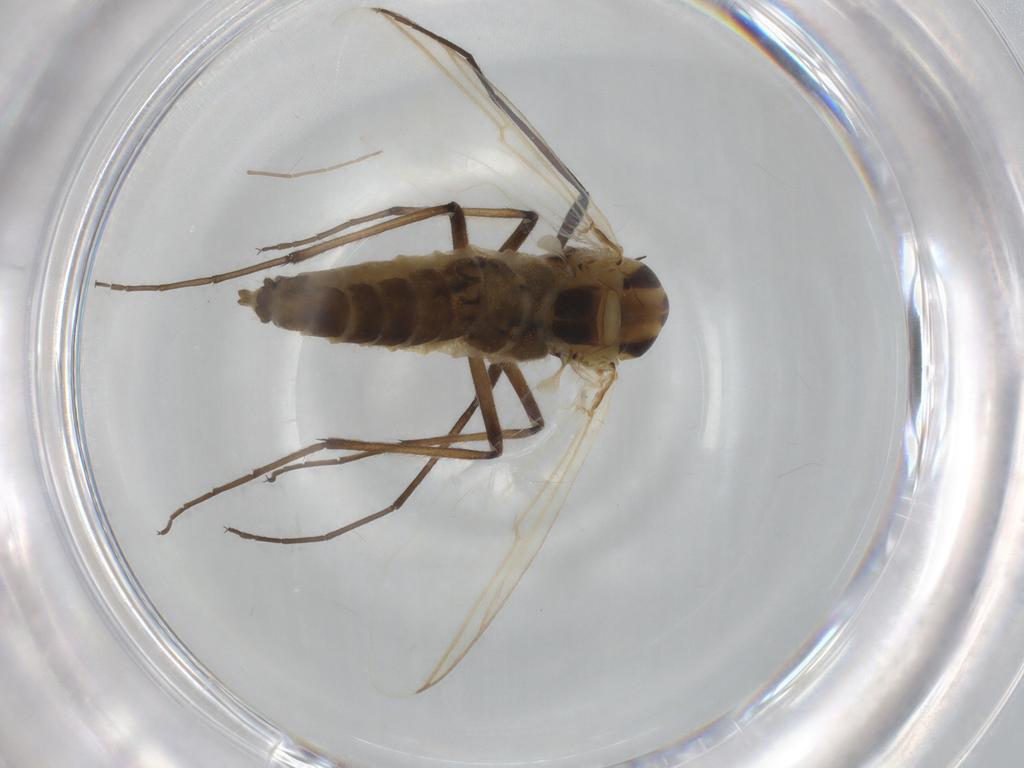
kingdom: Animalia
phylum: Arthropoda
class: Insecta
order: Diptera
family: Chironomidae
